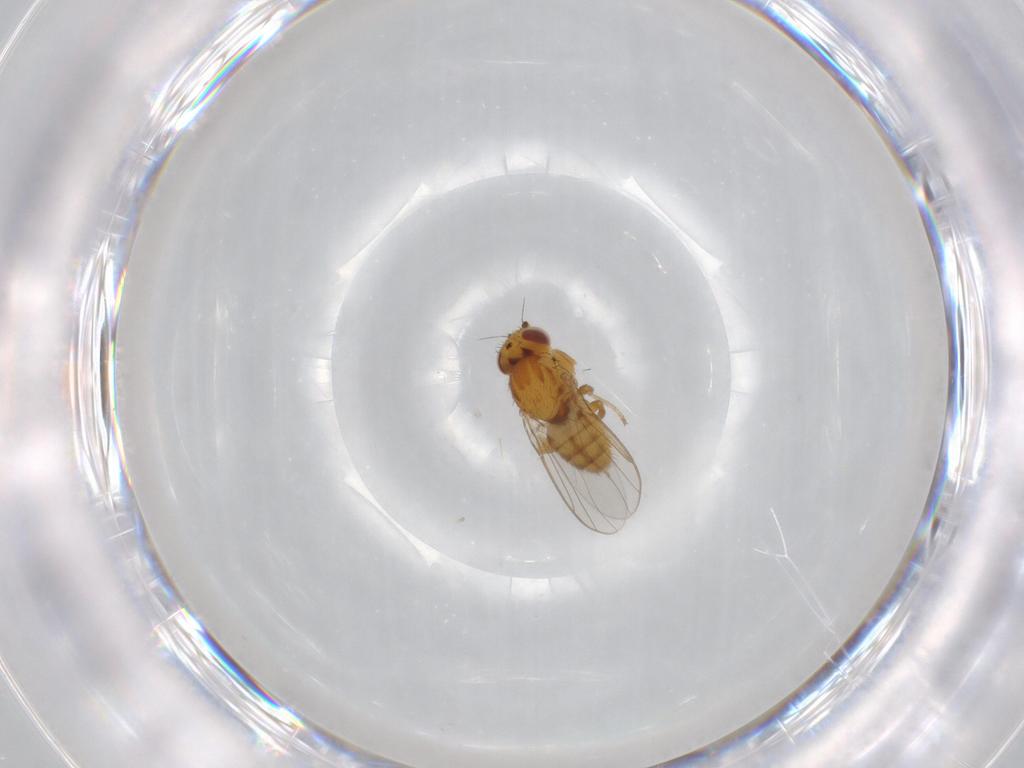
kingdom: Animalia
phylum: Arthropoda
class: Insecta
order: Diptera
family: Chloropidae
